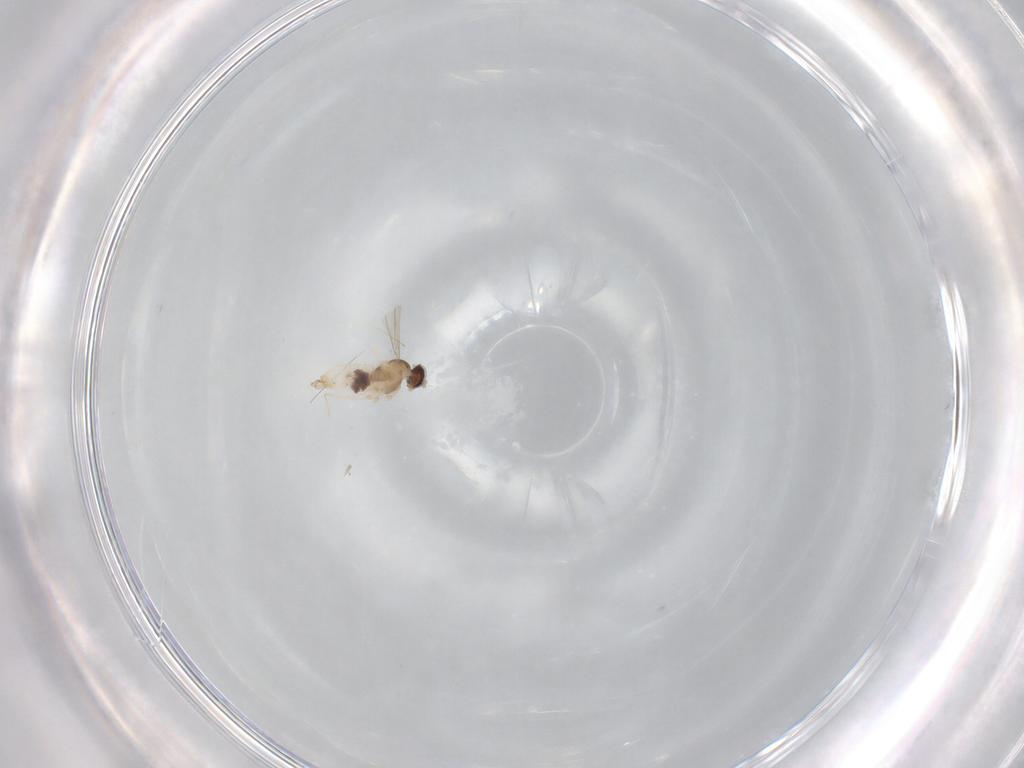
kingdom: Animalia
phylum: Arthropoda
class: Insecta
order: Diptera
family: Cecidomyiidae
